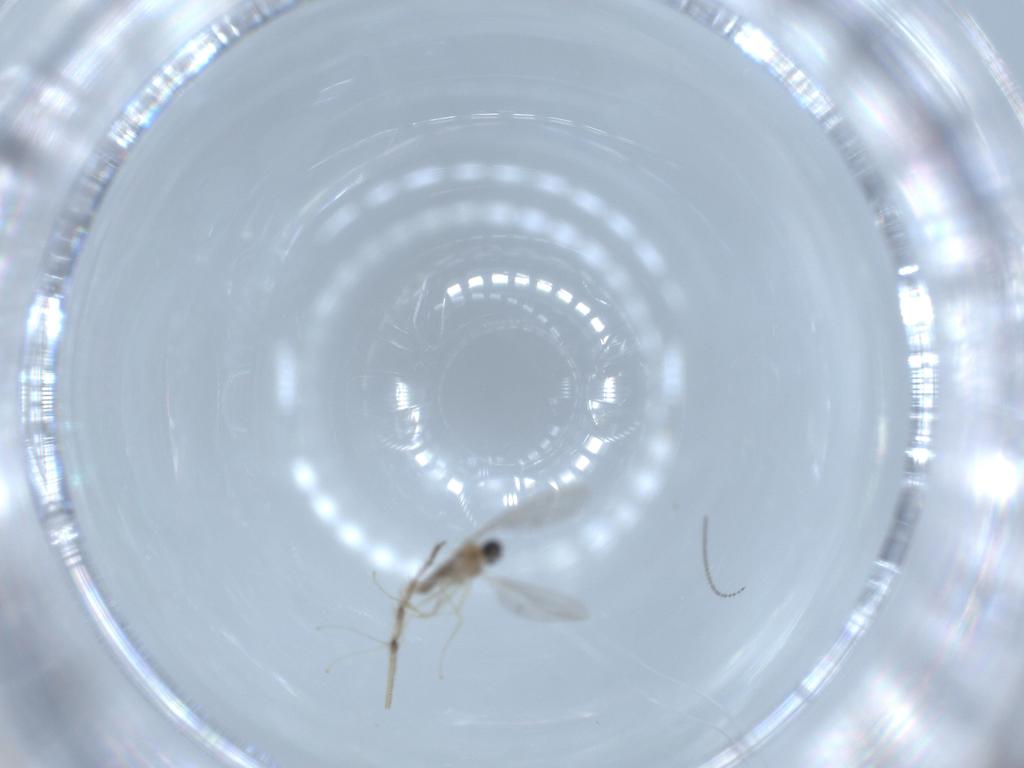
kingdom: Animalia
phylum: Arthropoda
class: Insecta
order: Diptera
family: Cecidomyiidae
